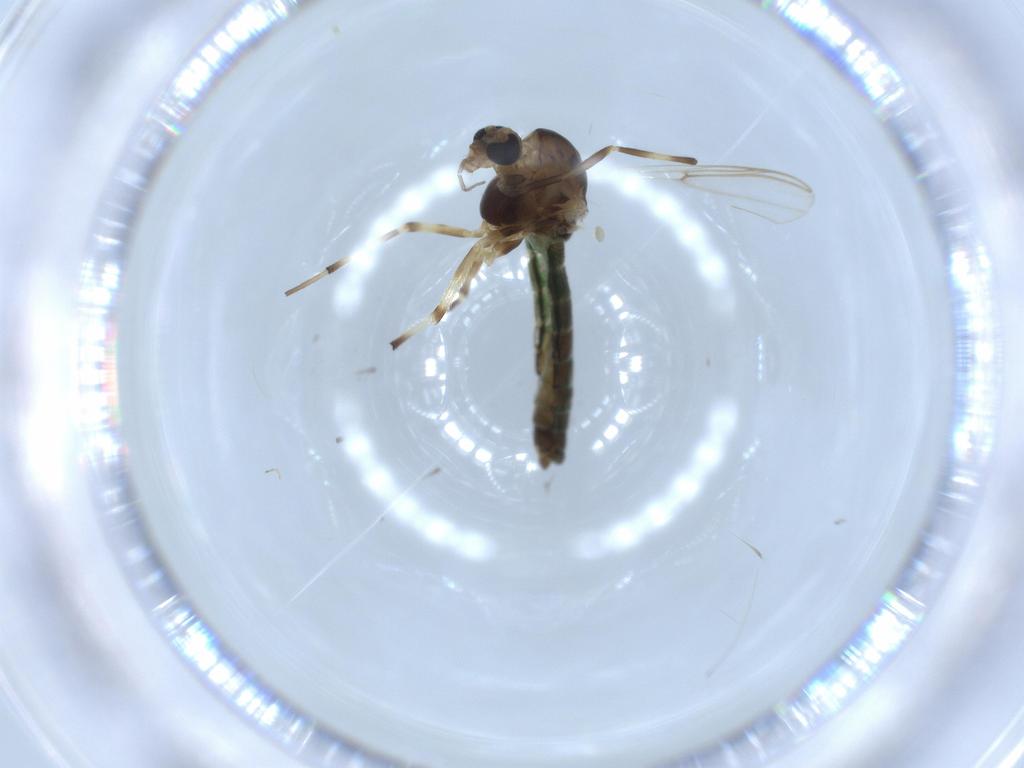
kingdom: Animalia
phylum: Arthropoda
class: Insecta
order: Diptera
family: Chironomidae
